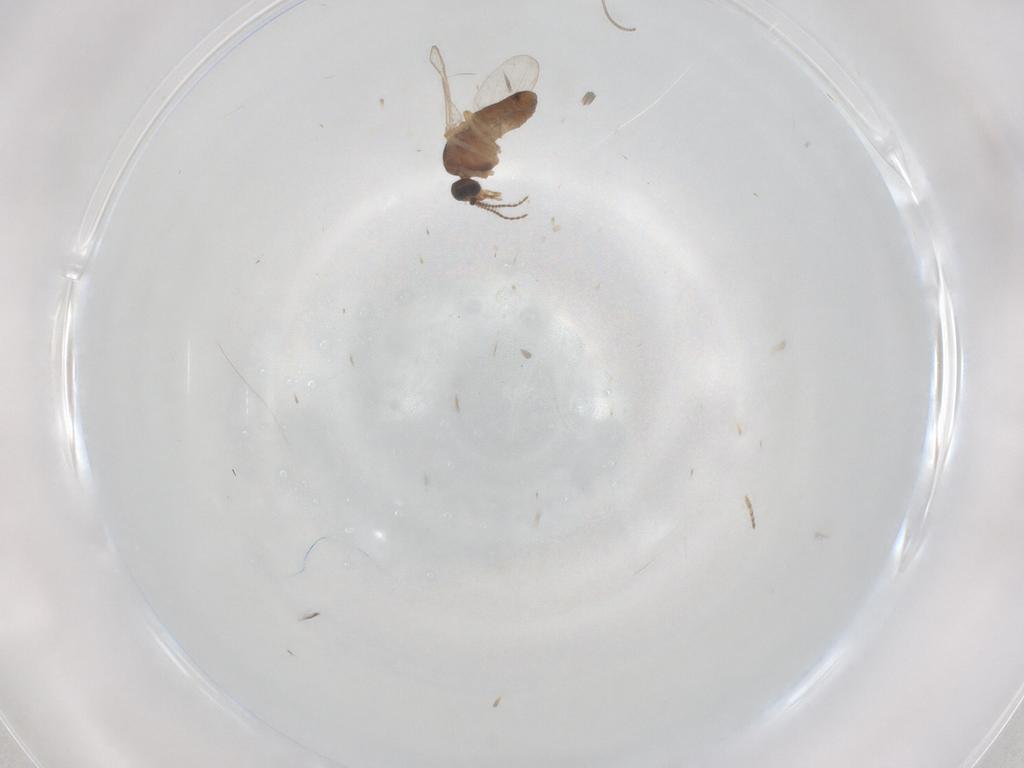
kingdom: Animalia
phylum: Arthropoda
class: Insecta
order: Diptera
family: Ceratopogonidae
